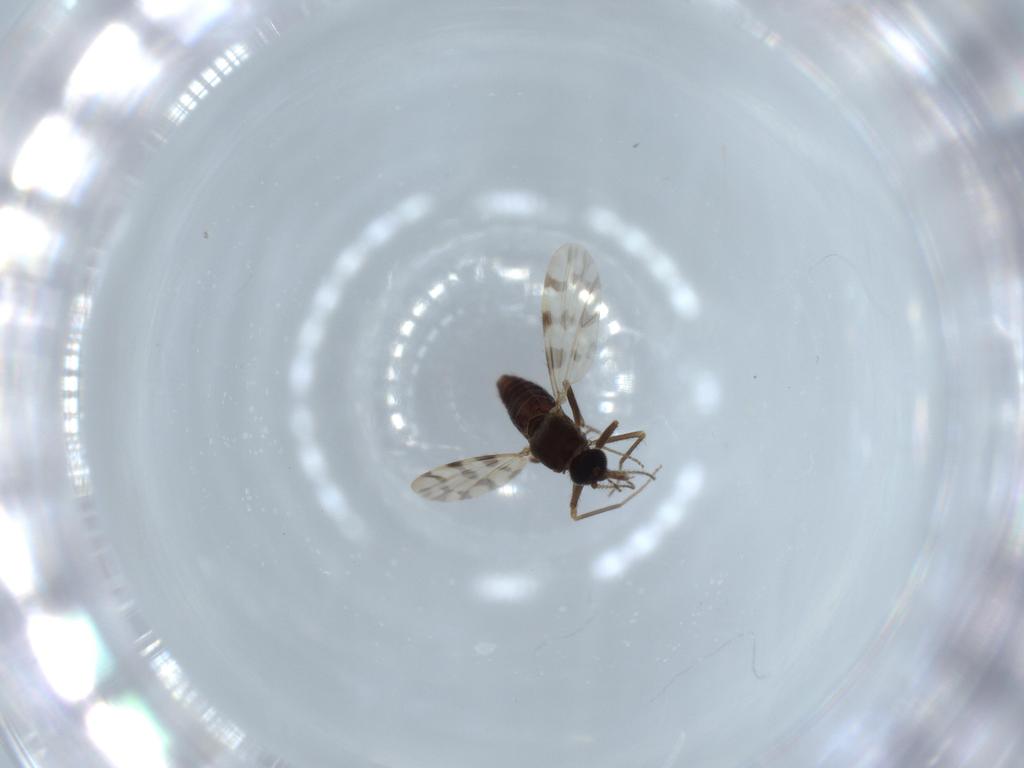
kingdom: Animalia
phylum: Arthropoda
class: Insecta
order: Diptera
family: Ceratopogonidae
